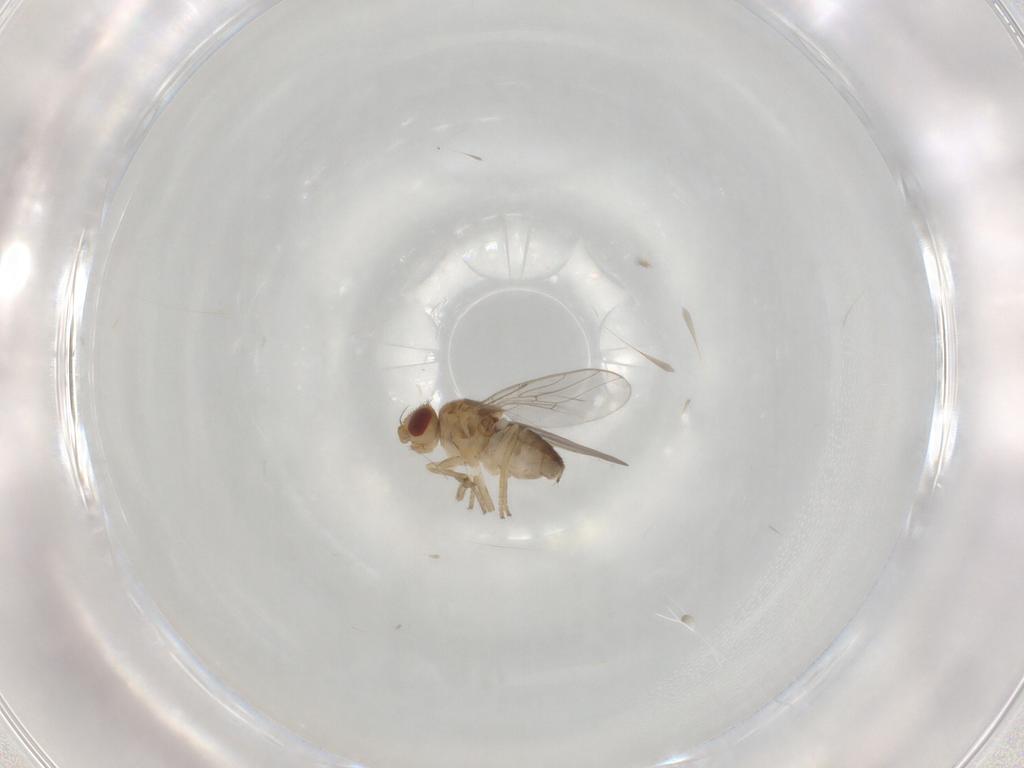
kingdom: Animalia
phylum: Arthropoda
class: Insecta
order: Diptera
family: Chloropidae
